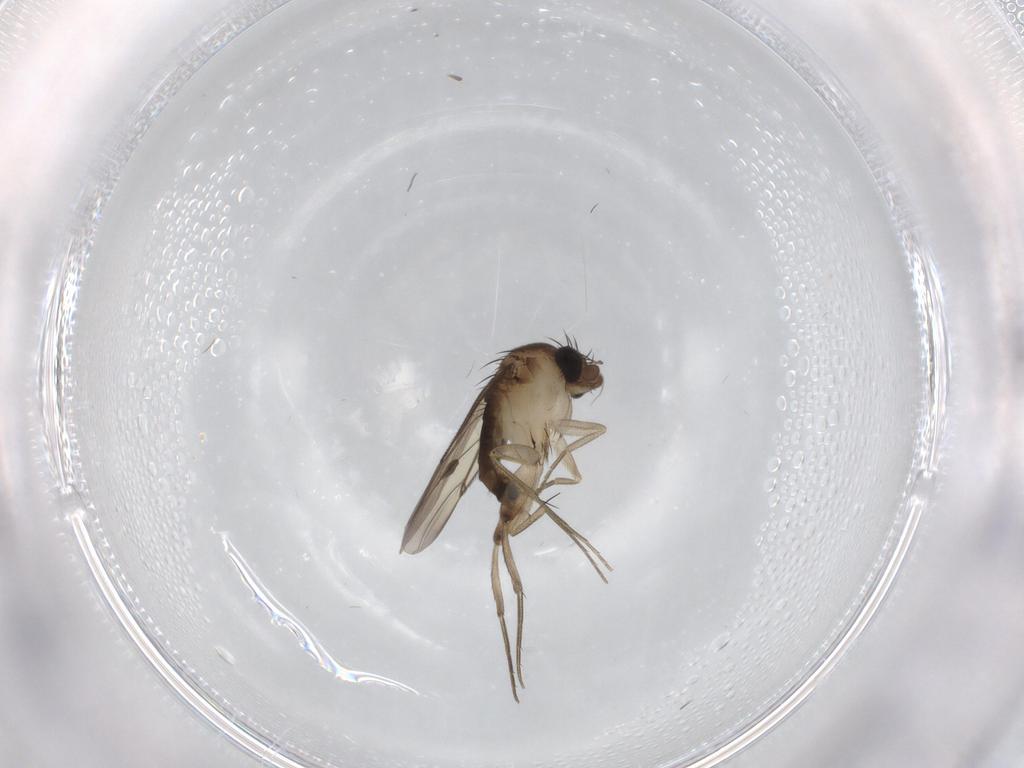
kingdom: Animalia
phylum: Arthropoda
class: Insecta
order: Diptera
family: Phoridae
